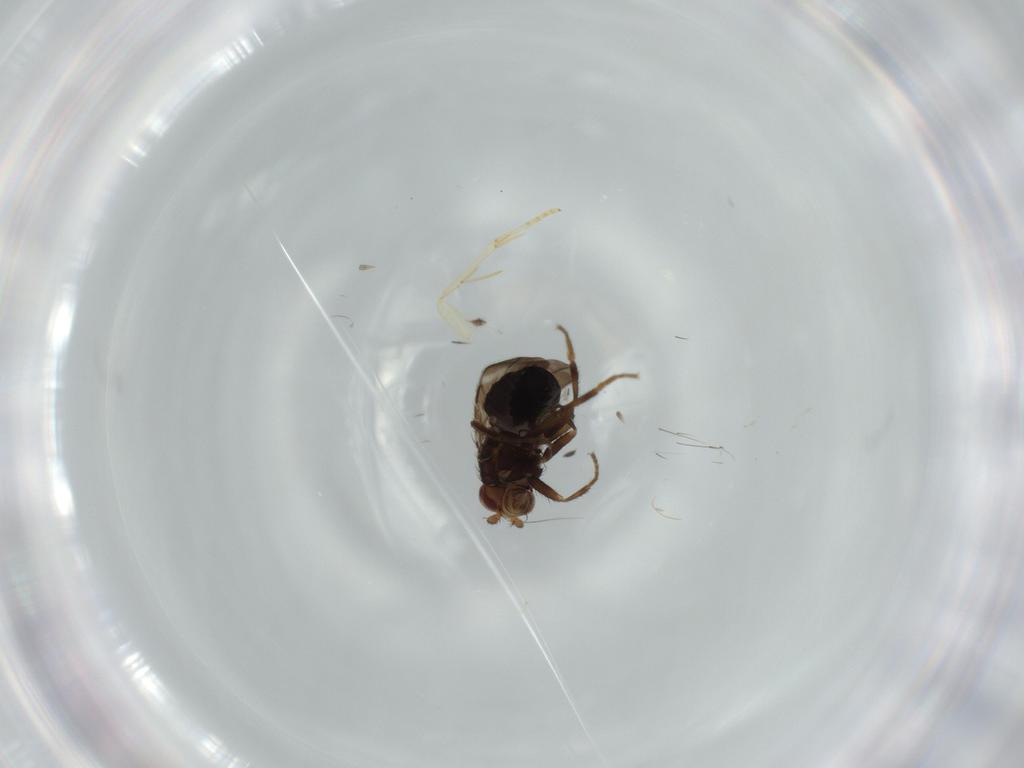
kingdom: Animalia
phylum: Arthropoda
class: Insecta
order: Diptera
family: Sphaeroceridae
